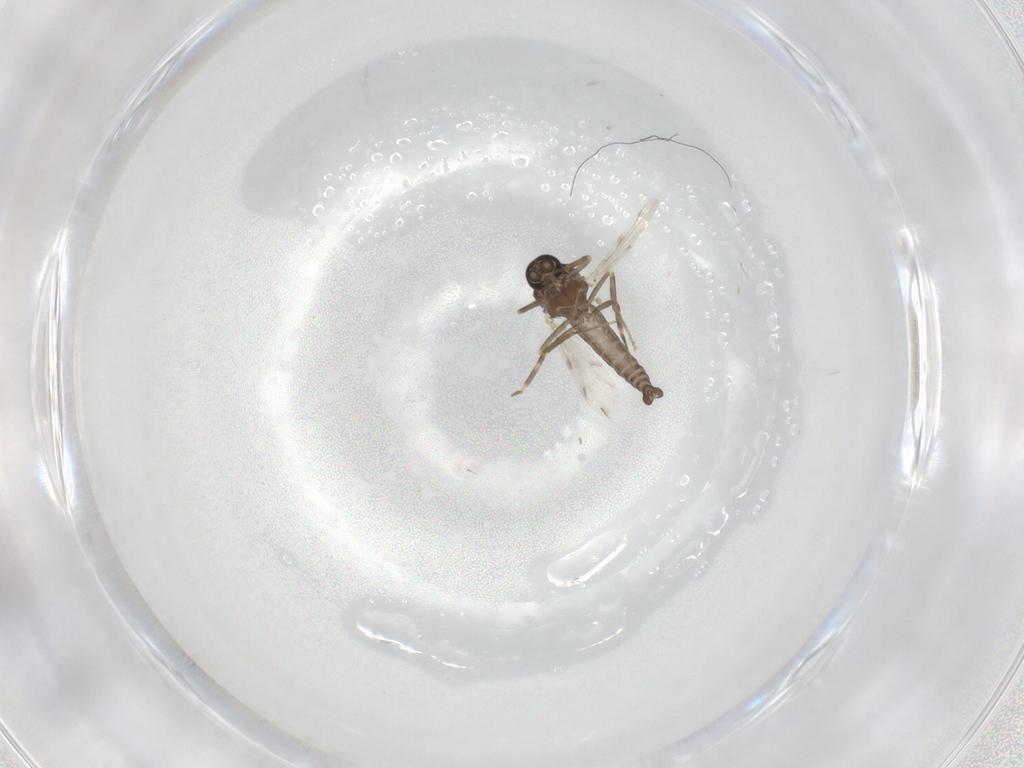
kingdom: Animalia
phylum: Arthropoda
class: Insecta
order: Diptera
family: Ceratopogonidae
